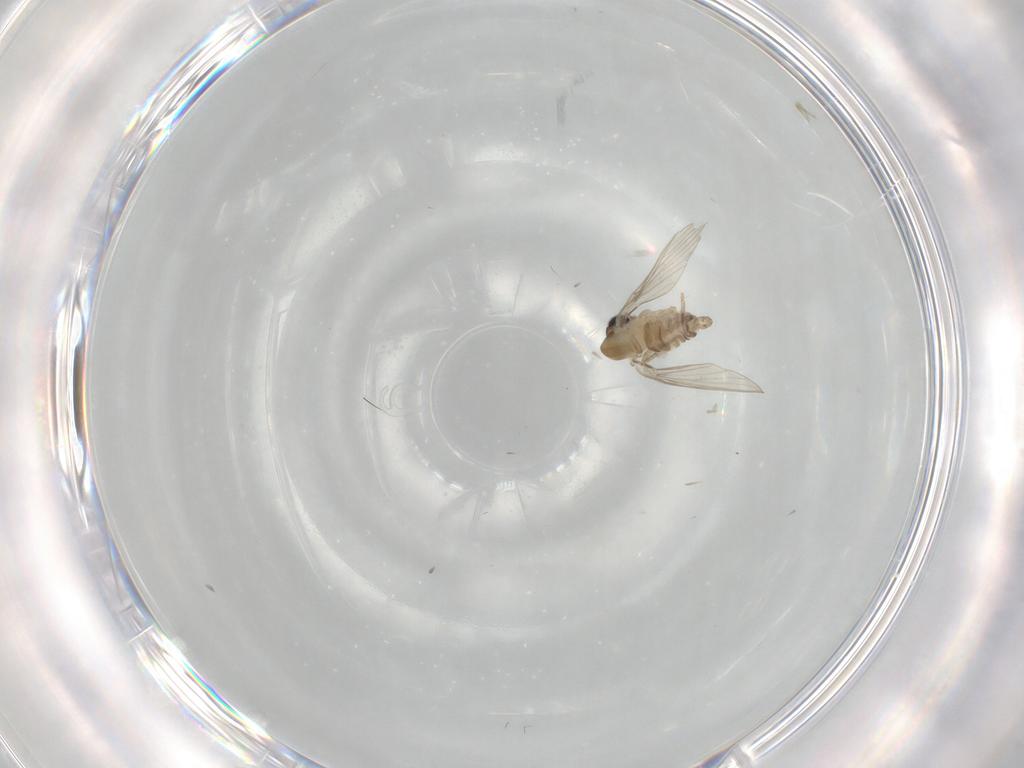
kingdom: Animalia
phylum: Arthropoda
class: Insecta
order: Diptera
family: Psychodidae
